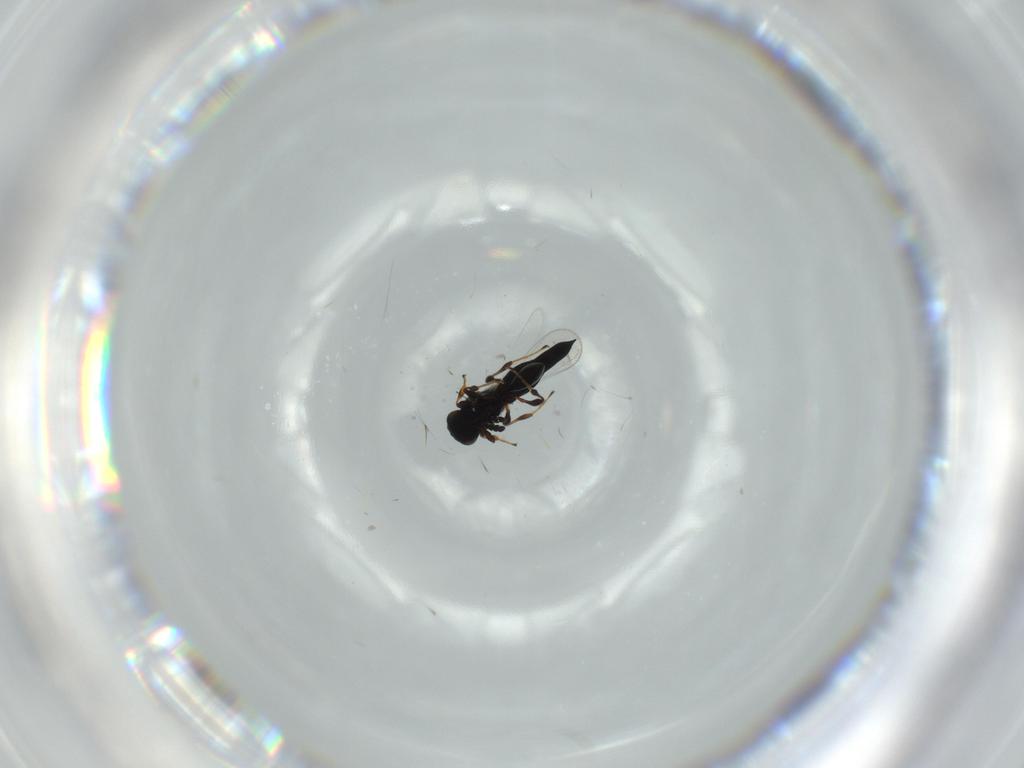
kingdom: Animalia
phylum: Arthropoda
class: Insecta
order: Hymenoptera
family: Platygastridae
